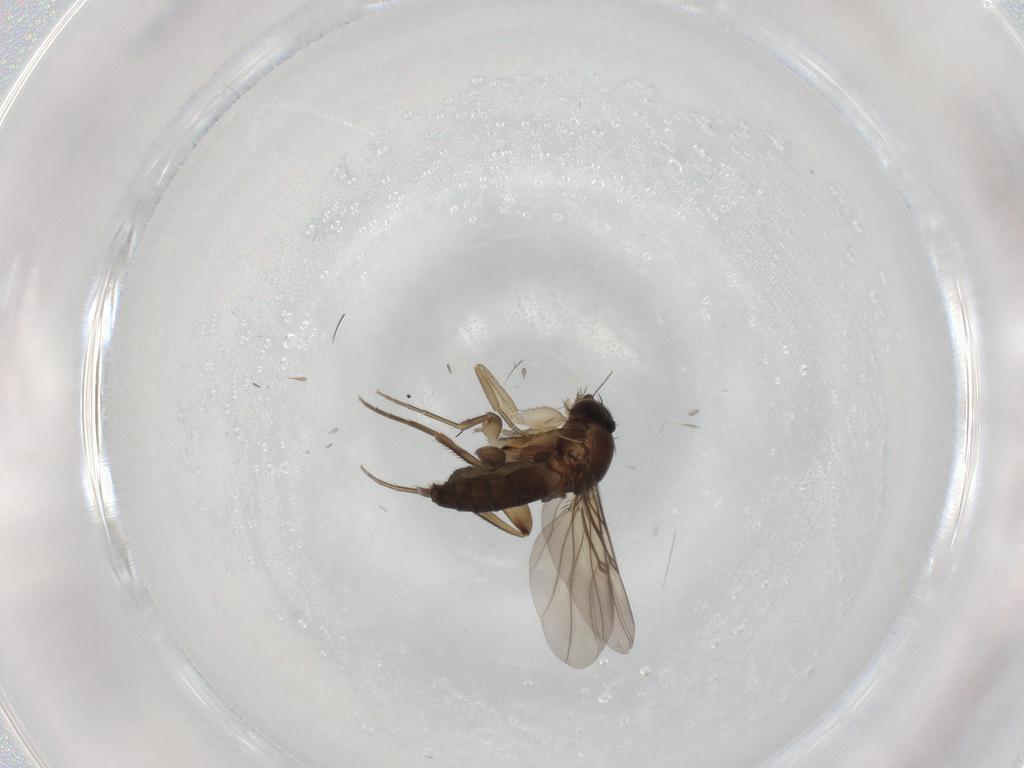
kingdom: Animalia
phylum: Arthropoda
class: Insecta
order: Diptera
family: Phoridae
